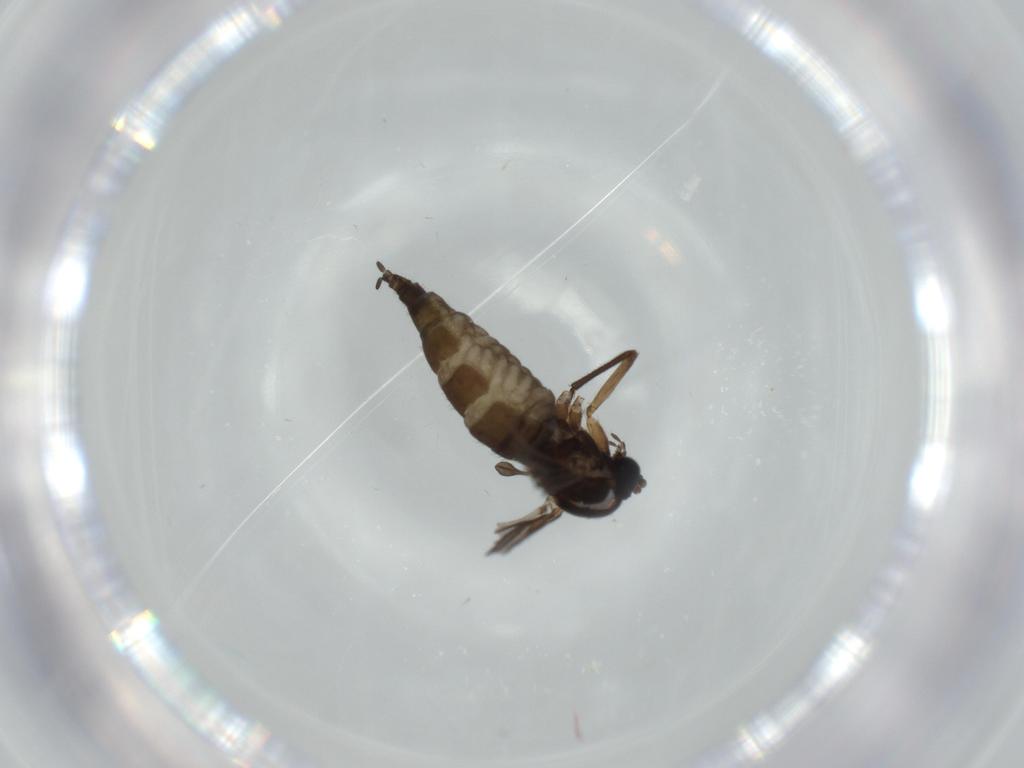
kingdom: Animalia
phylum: Arthropoda
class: Insecta
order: Diptera
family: Sciaridae
